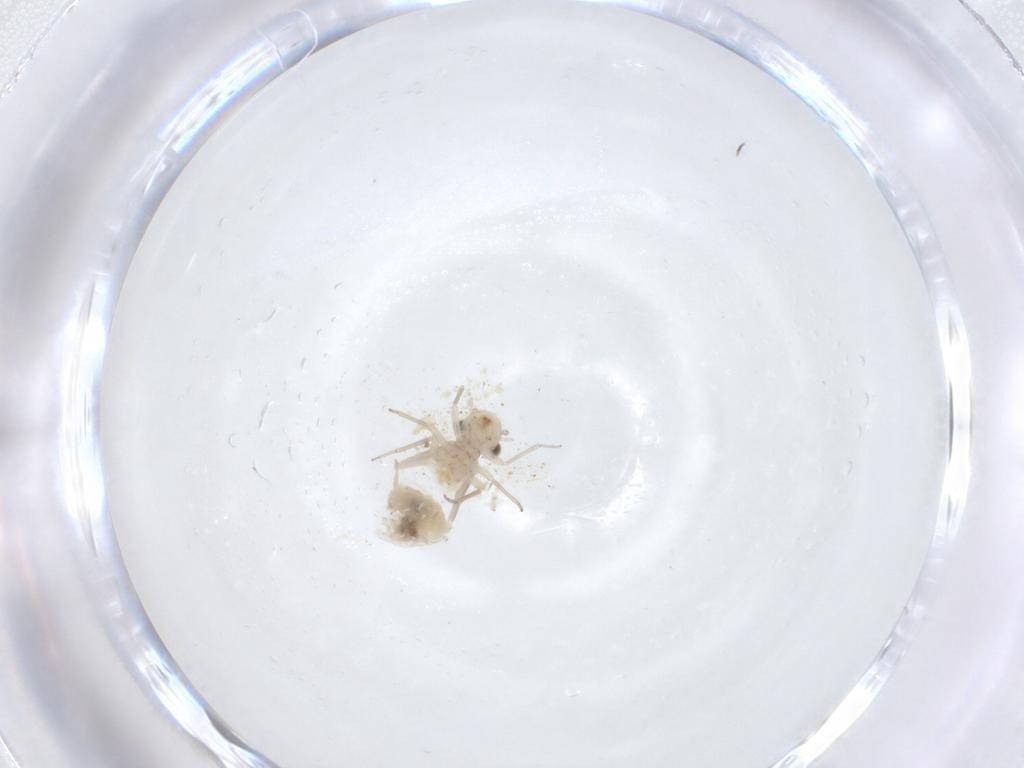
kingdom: Animalia
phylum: Arthropoda
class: Insecta
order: Psocodea
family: Lachesillidae
